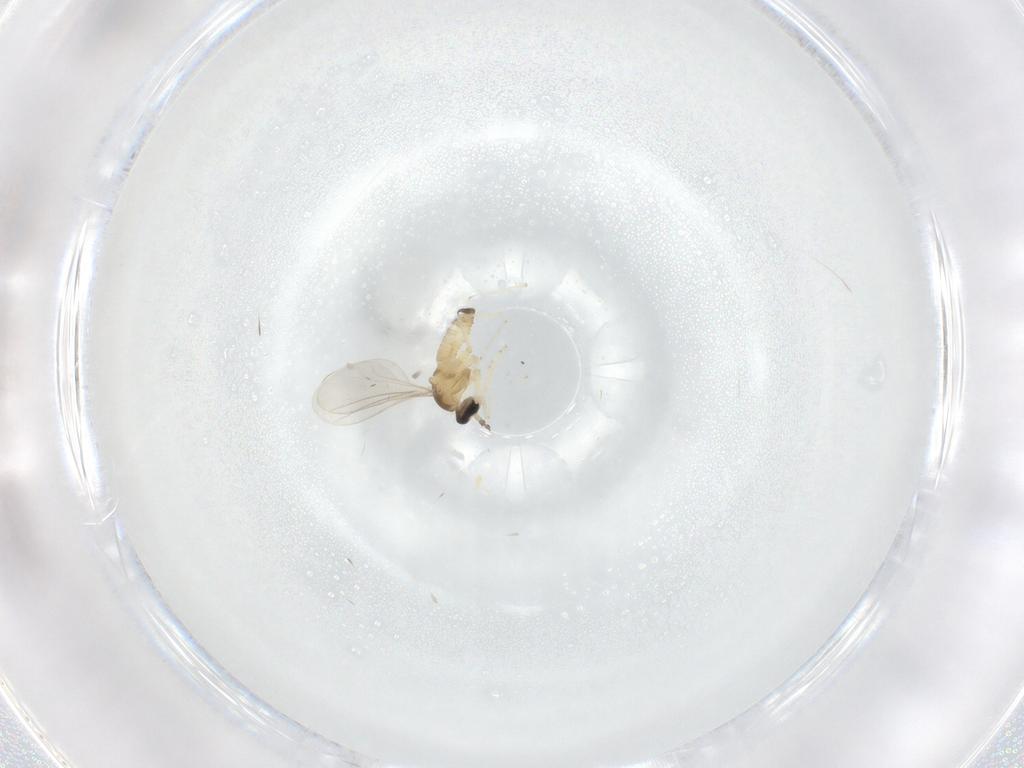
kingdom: Animalia
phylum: Arthropoda
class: Insecta
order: Diptera
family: Cecidomyiidae
